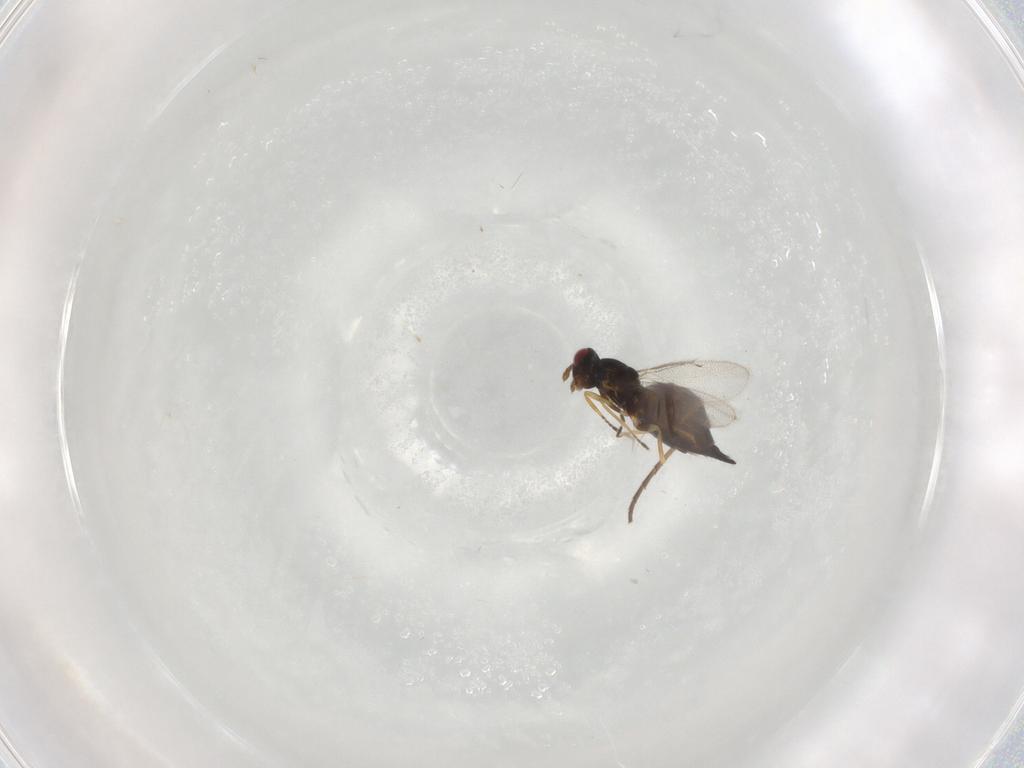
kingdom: Animalia
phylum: Arthropoda
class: Insecta
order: Hymenoptera
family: Eulophidae
